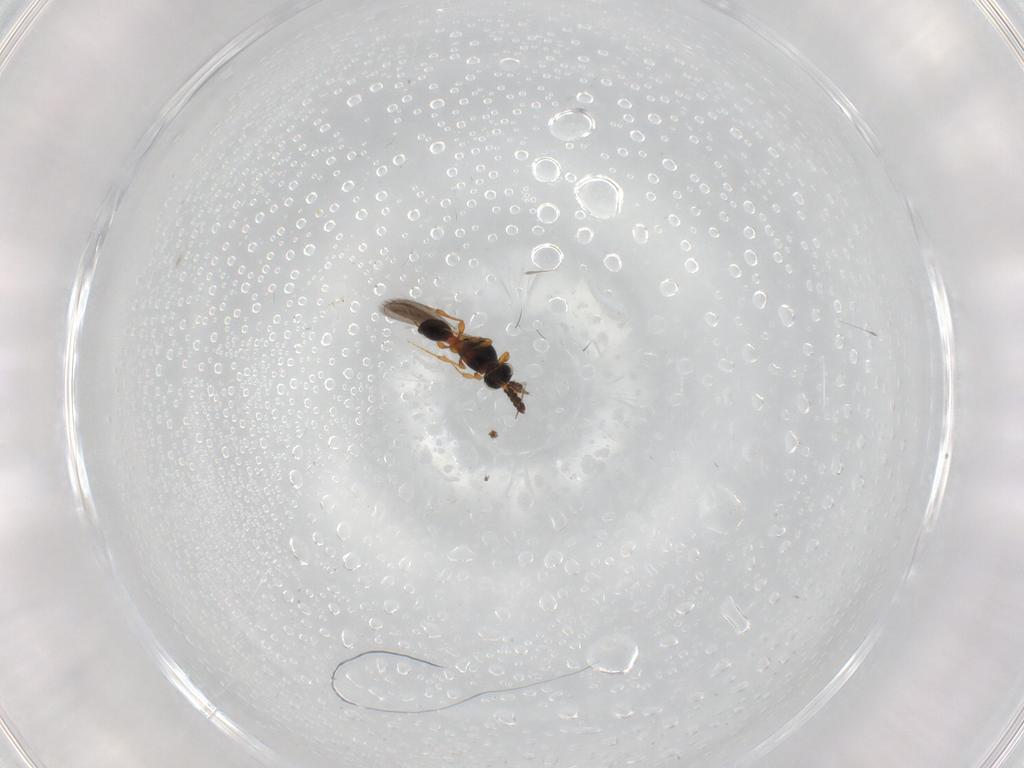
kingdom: Animalia
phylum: Arthropoda
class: Insecta
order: Hymenoptera
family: Platygastridae
